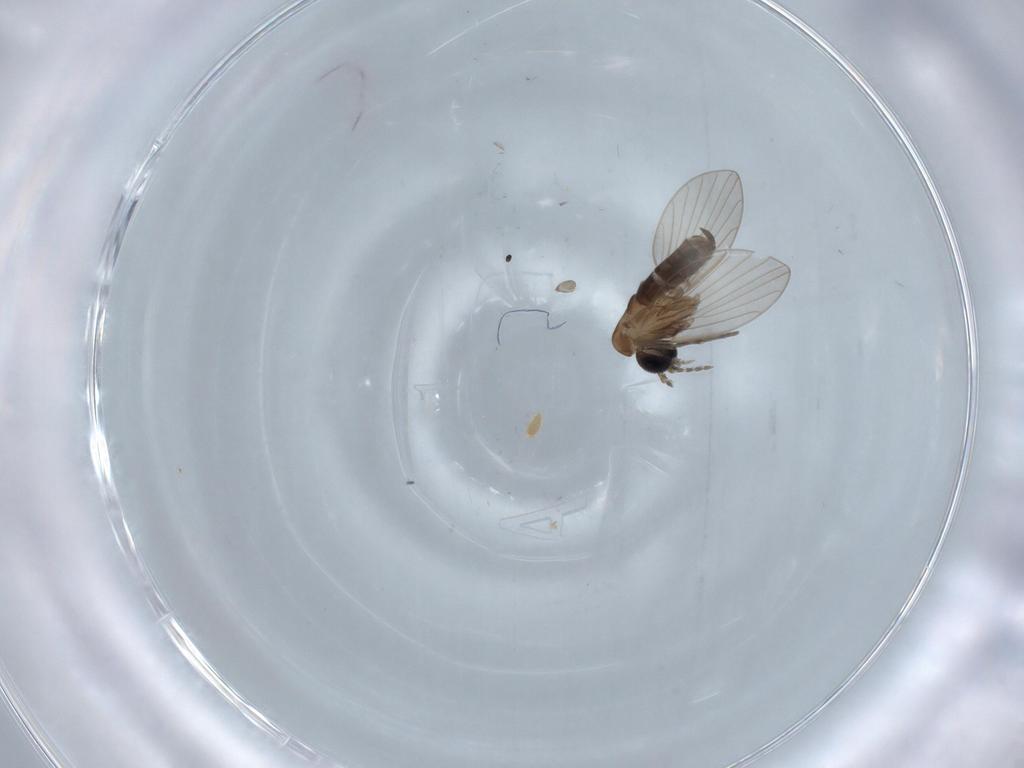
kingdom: Animalia
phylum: Arthropoda
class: Insecta
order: Diptera
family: Psychodidae
